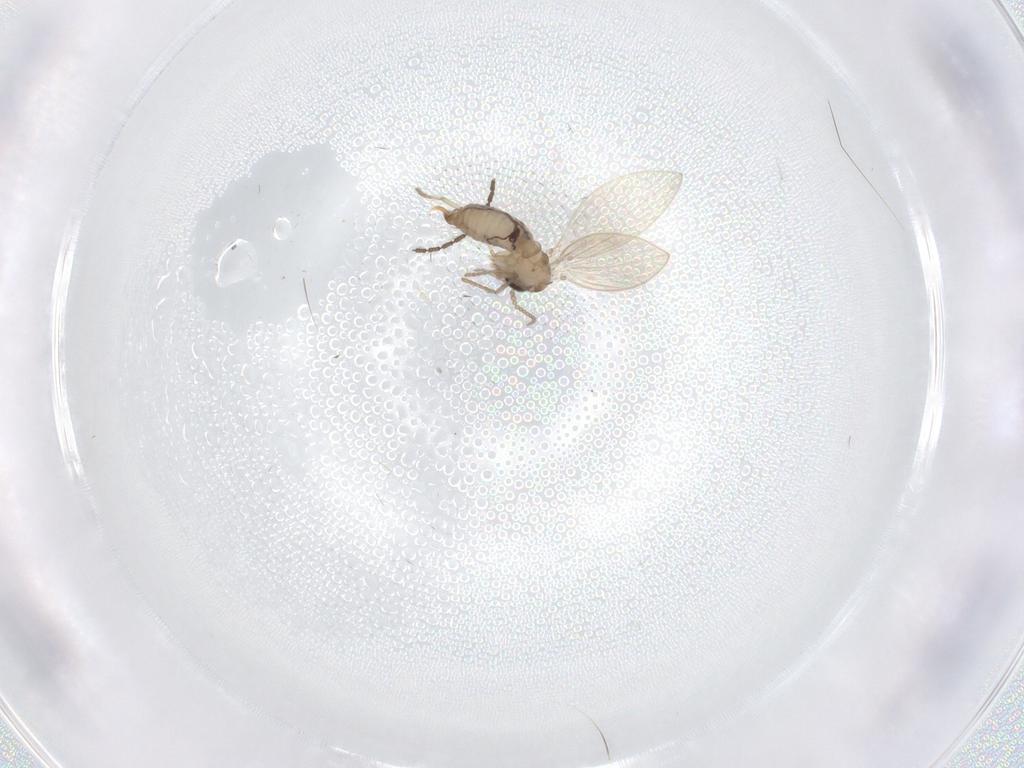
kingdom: Animalia
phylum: Arthropoda
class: Insecta
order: Diptera
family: Psychodidae
